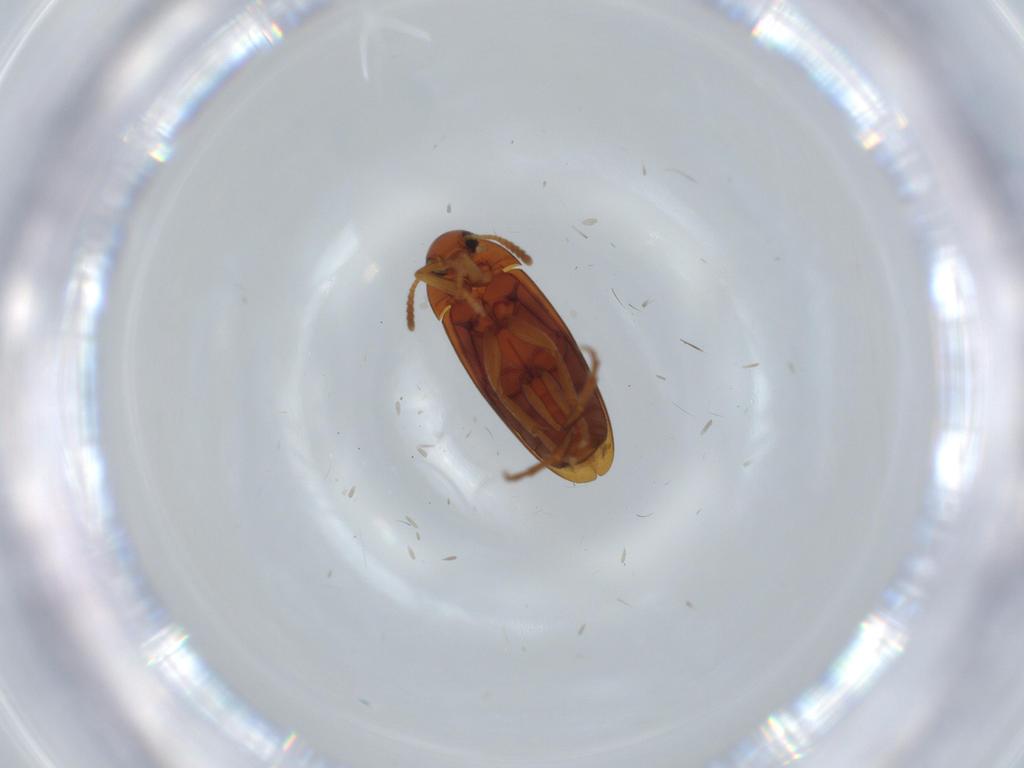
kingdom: Animalia
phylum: Arthropoda
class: Insecta
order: Coleoptera
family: Scraptiidae
